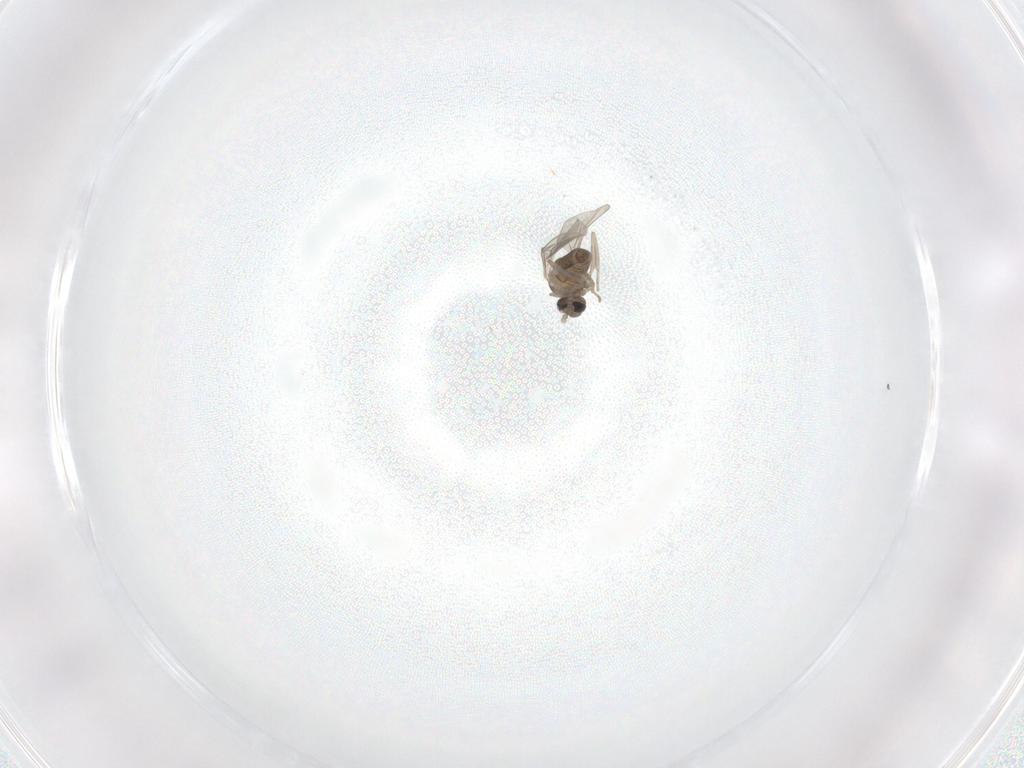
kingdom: Animalia
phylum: Arthropoda
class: Insecta
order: Diptera
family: Cecidomyiidae
